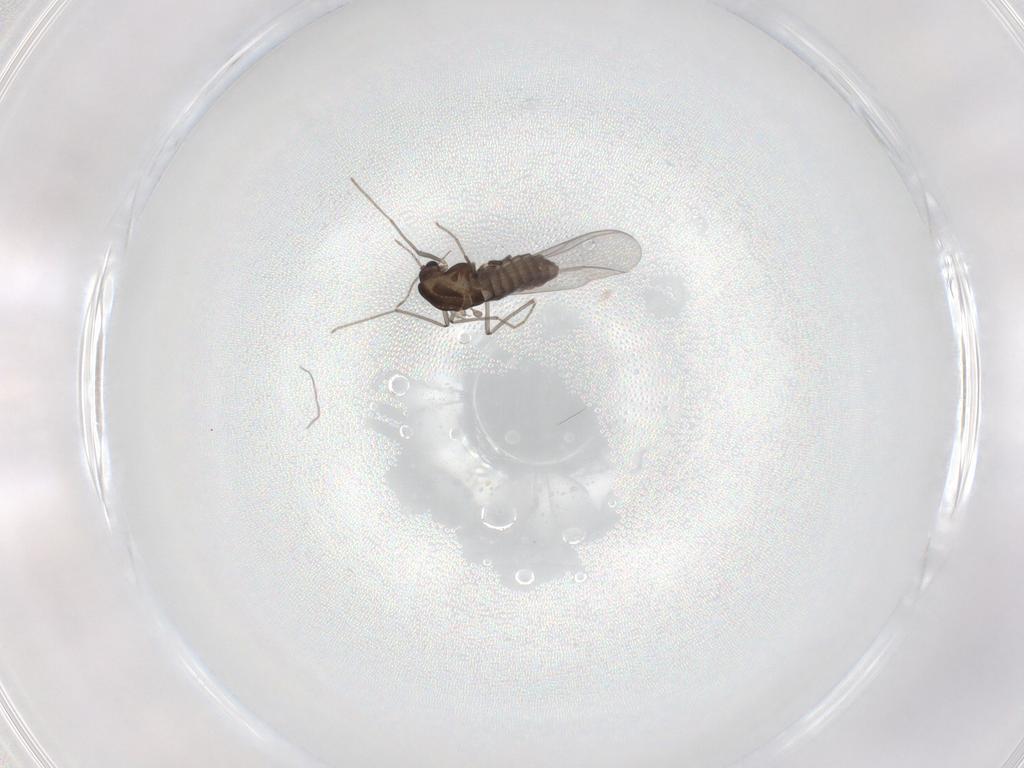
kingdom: Animalia
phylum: Arthropoda
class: Insecta
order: Diptera
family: Chironomidae
